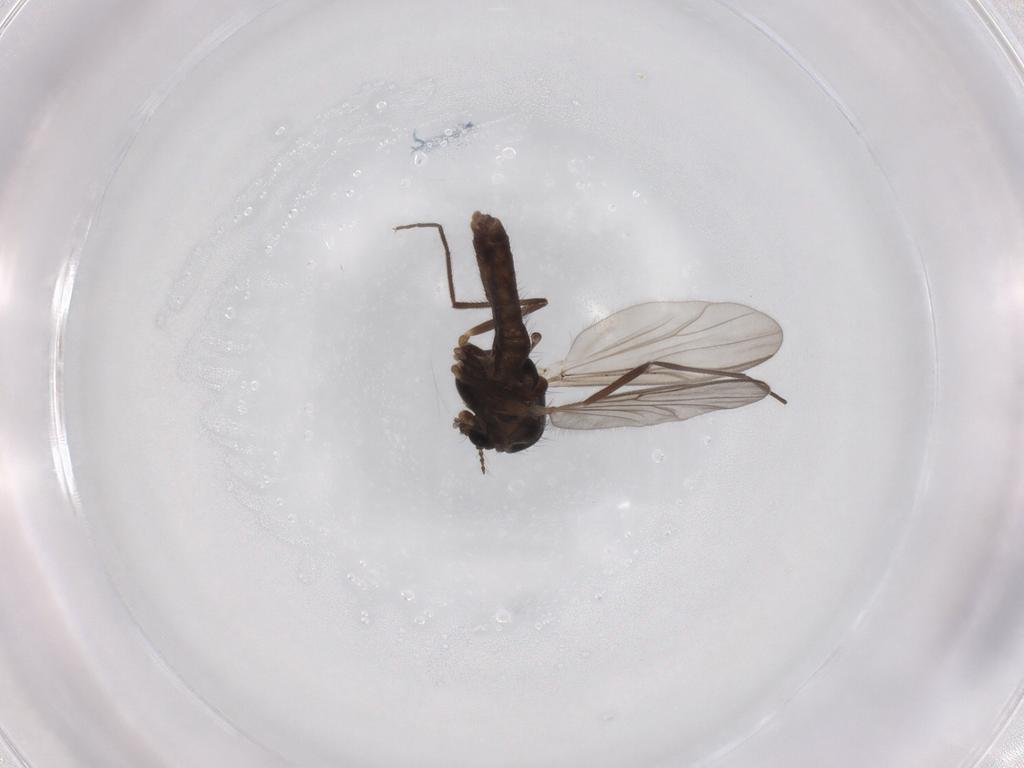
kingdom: Animalia
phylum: Arthropoda
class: Insecta
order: Diptera
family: Chironomidae
